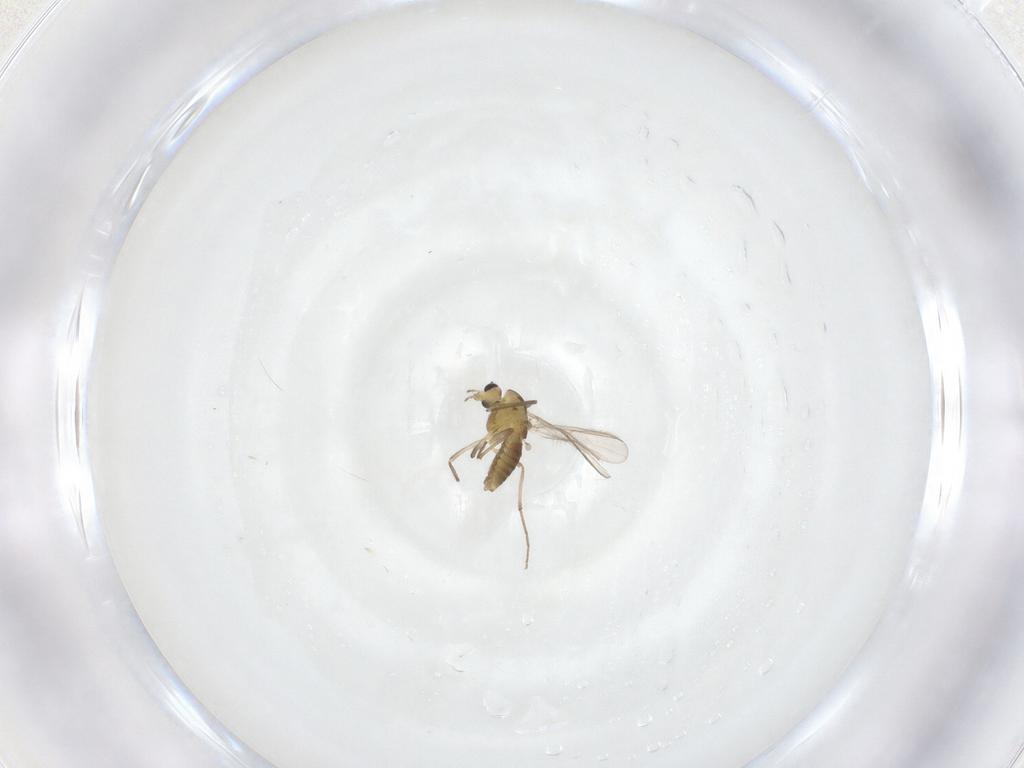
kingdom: Animalia
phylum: Arthropoda
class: Insecta
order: Diptera
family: Chironomidae
